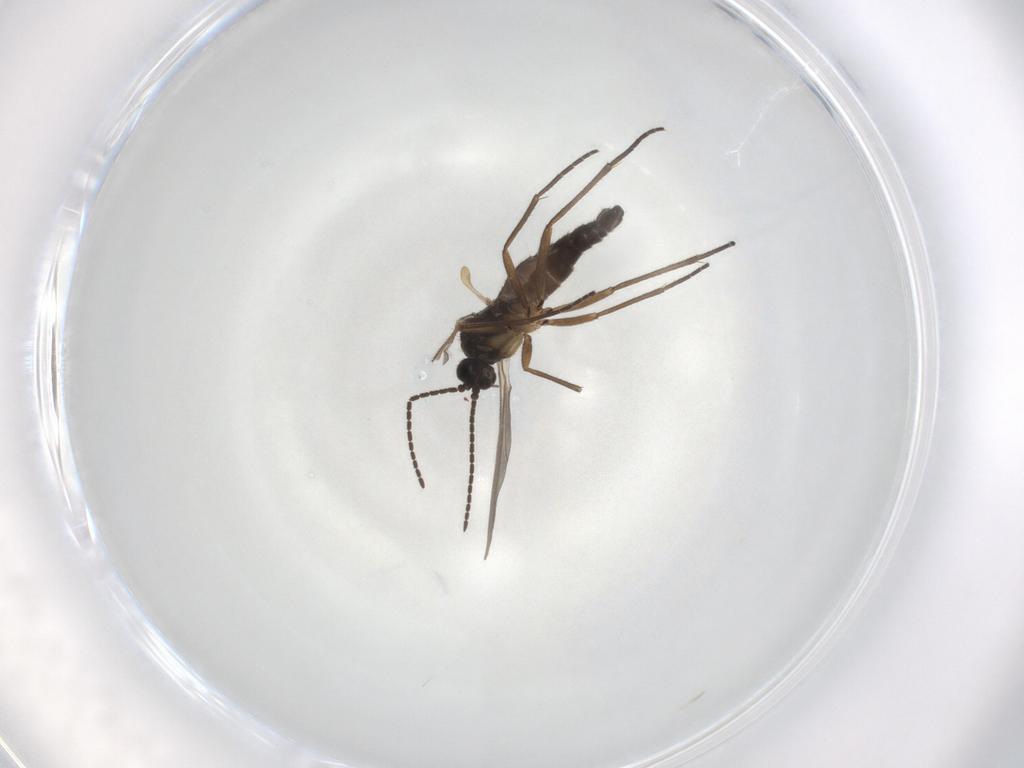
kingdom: Animalia
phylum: Arthropoda
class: Insecta
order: Diptera
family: Sciaridae
